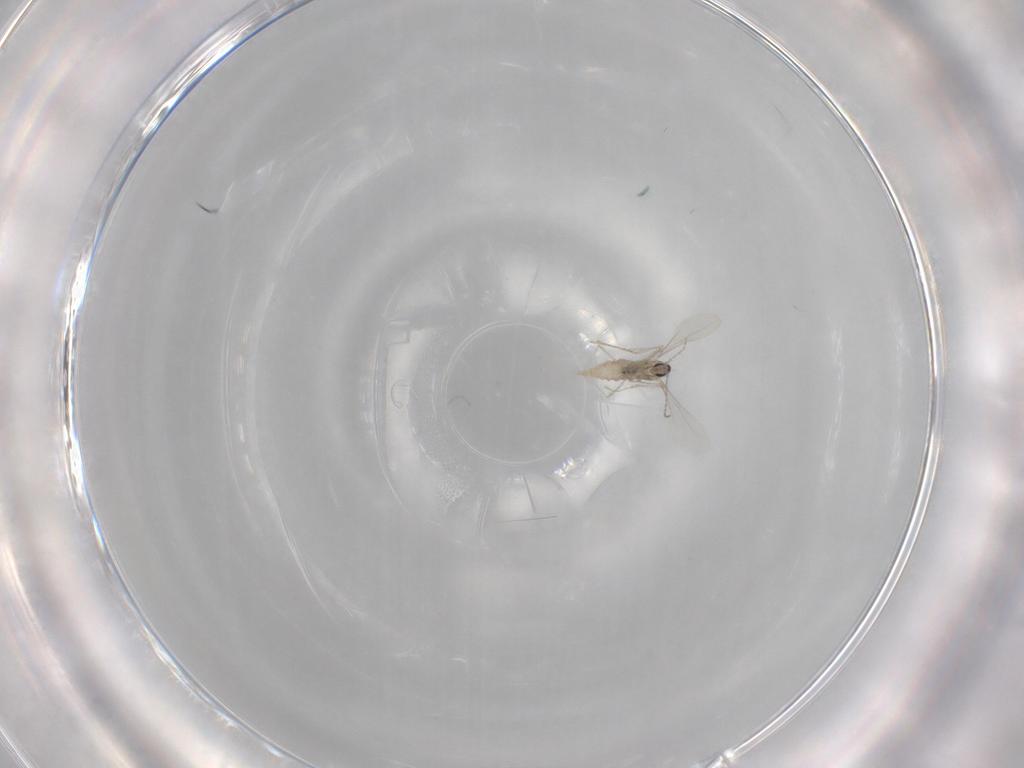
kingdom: Animalia
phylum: Arthropoda
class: Insecta
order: Diptera
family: Cecidomyiidae
